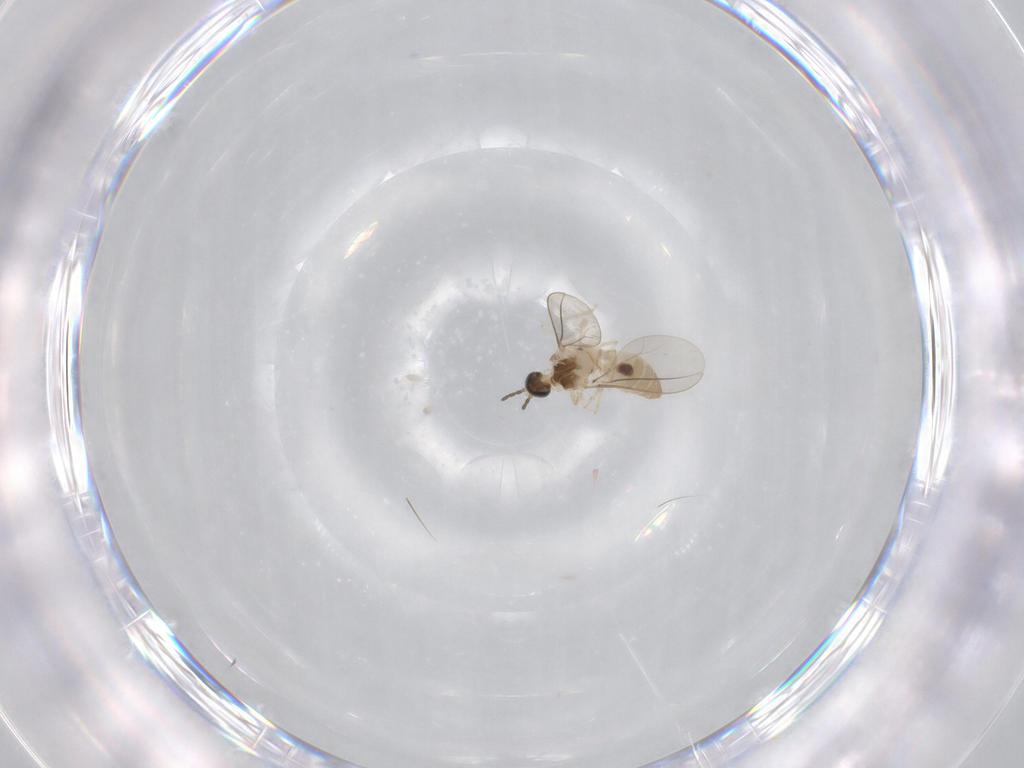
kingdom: Animalia
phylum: Arthropoda
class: Insecta
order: Diptera
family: Cecidomyiidae
